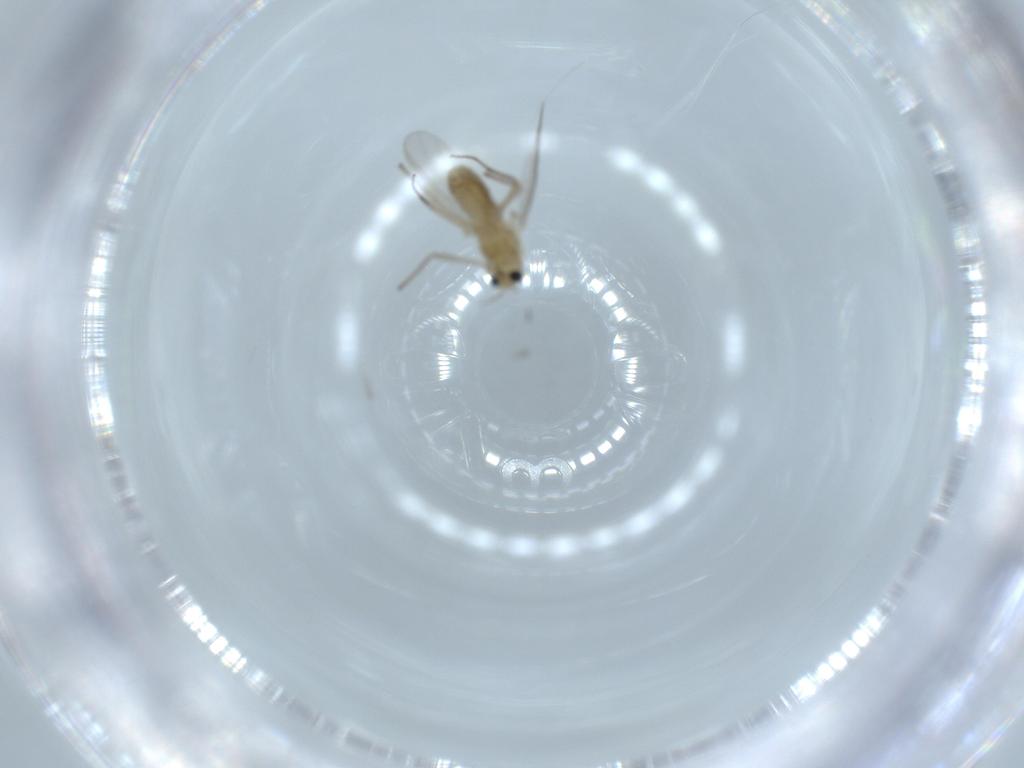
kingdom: Animalia
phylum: Arthropoda
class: Insecta
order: Diptera
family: Chironomidae
